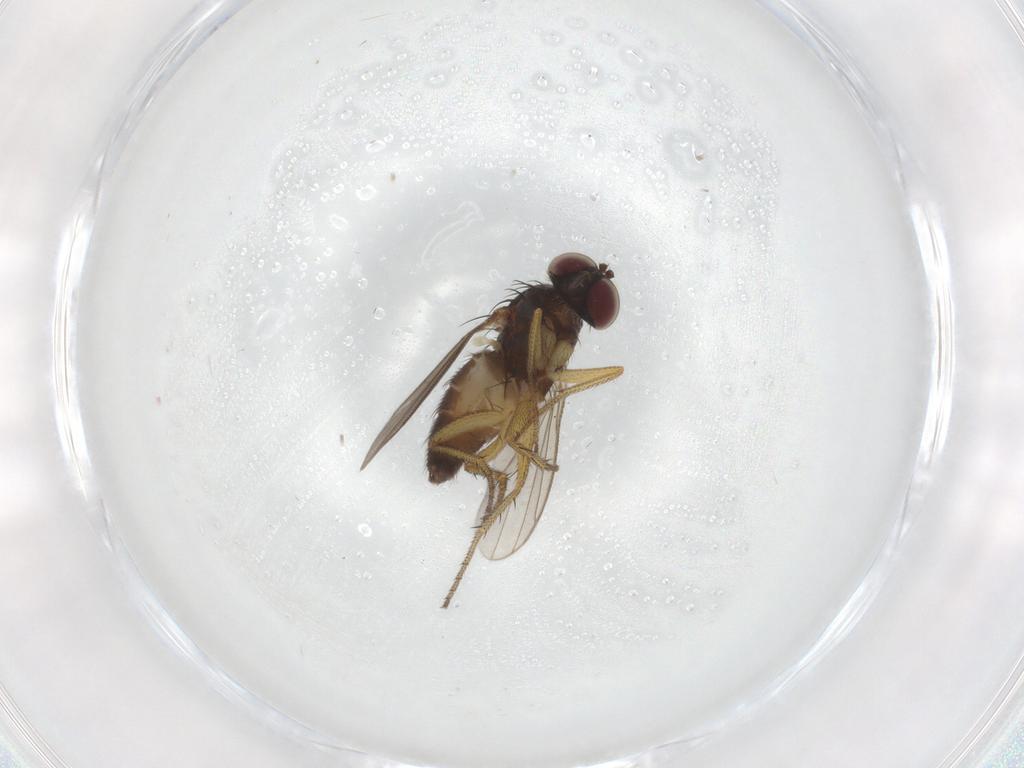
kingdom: Animalia
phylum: Arthropoda
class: Insecta
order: Diptera
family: Dolichopodidae
